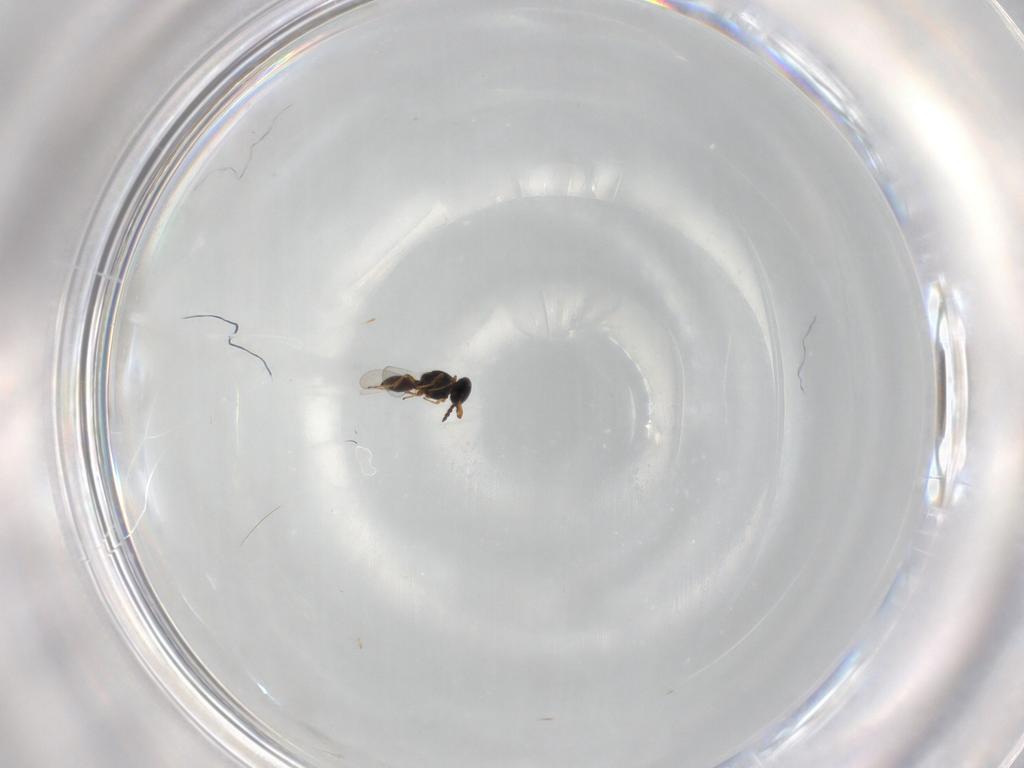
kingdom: Animalia
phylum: Arthropoda
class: Insecta
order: Hymenoptera
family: Platygastridae
